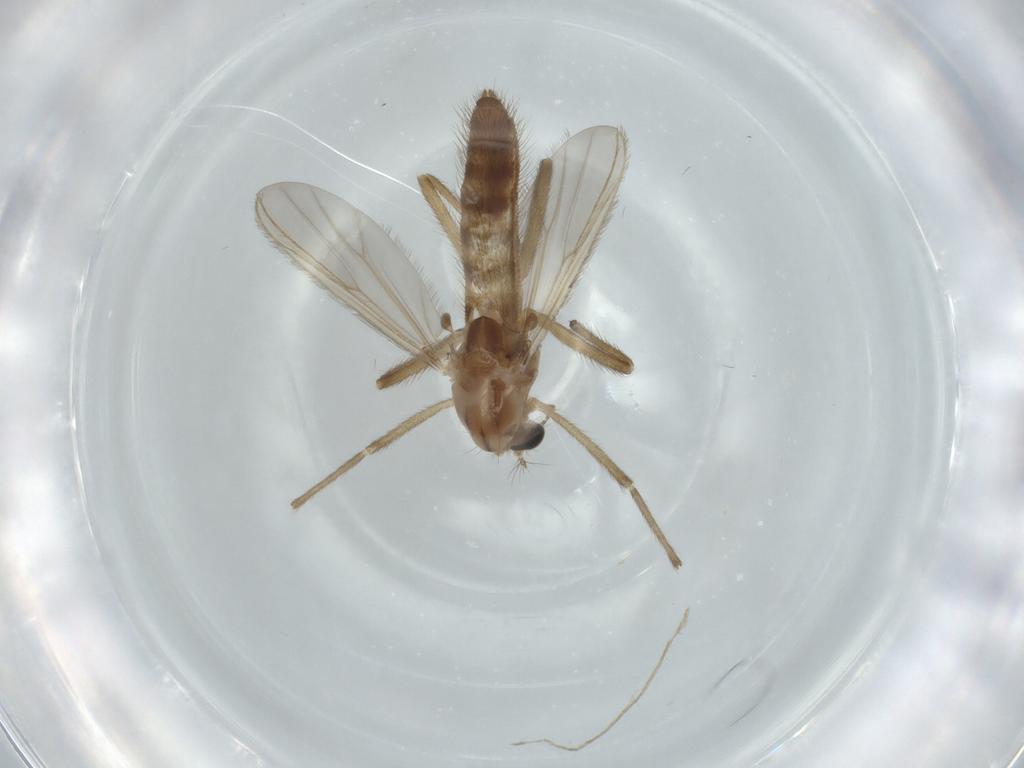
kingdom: Animalia
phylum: Arthropoda
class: Insecta
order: Diptera
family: Chironomidae
